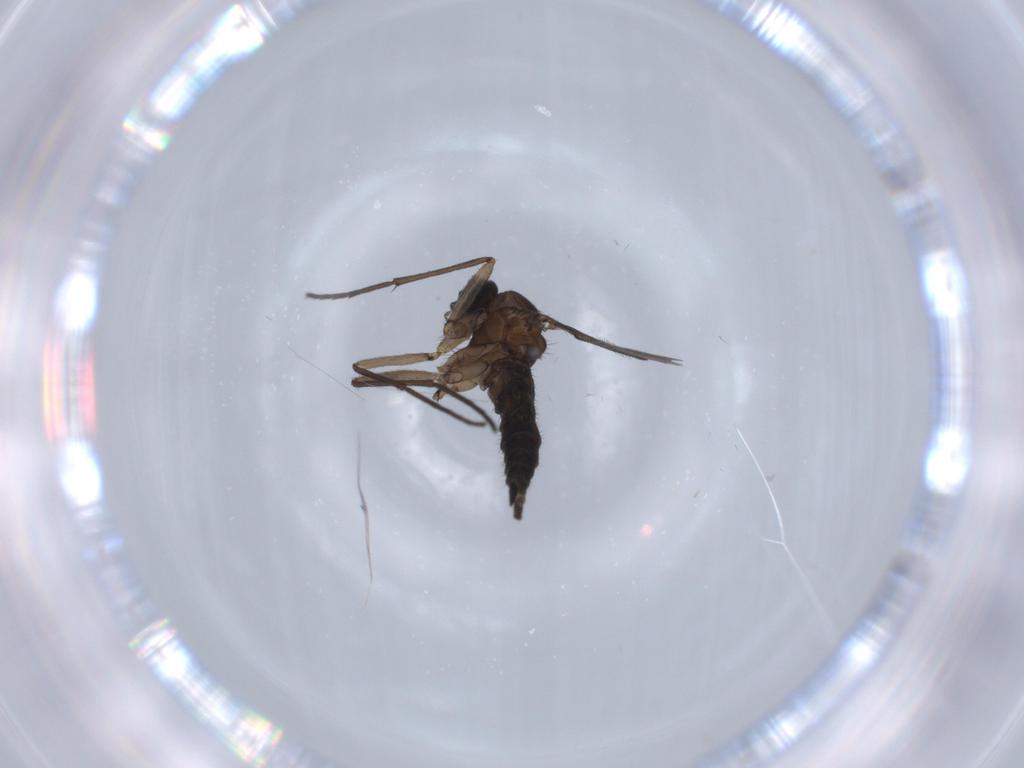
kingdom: Animalia
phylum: Arthropoda
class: Insecta
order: Diptera
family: Sciaridae
